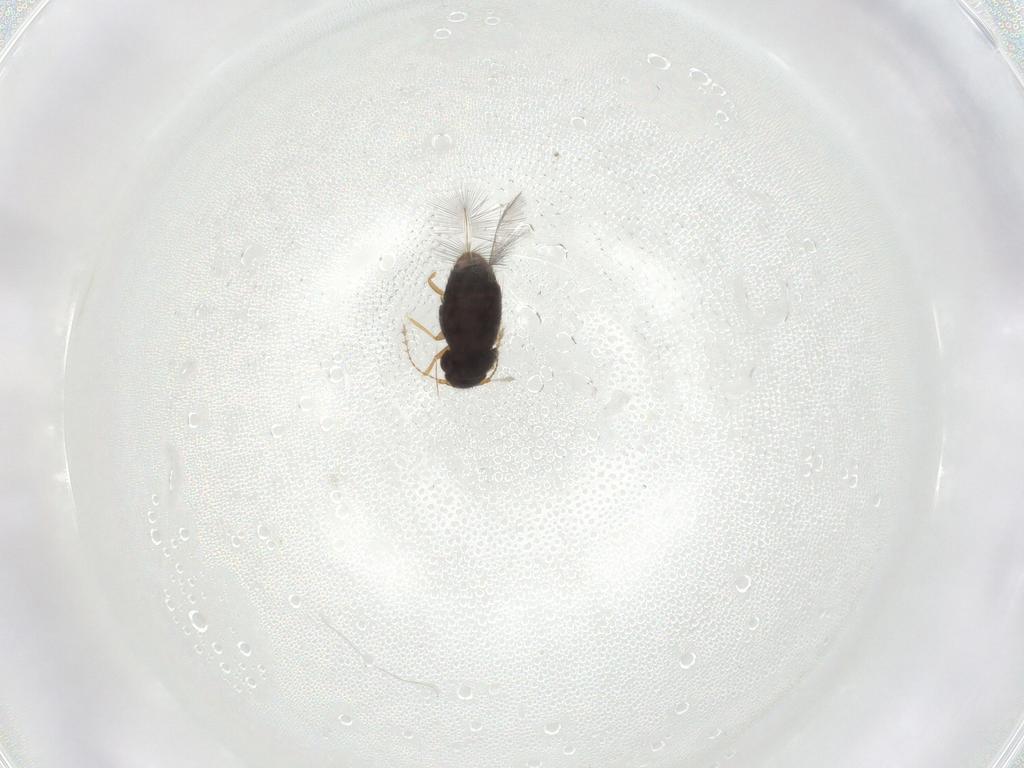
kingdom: Animalia
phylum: Arthropoda
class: Insecta
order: Coleoptera
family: Ptiliidae
